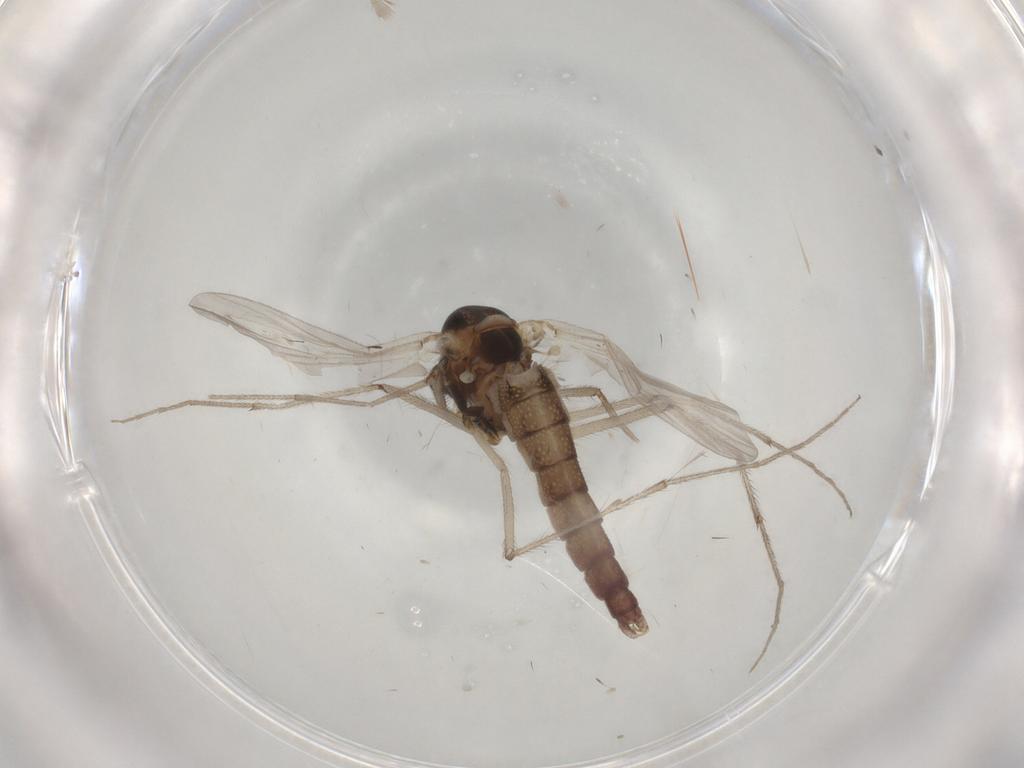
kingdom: Animalia
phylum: Arthropoda
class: Insecta
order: Diptera
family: Chironomidae
